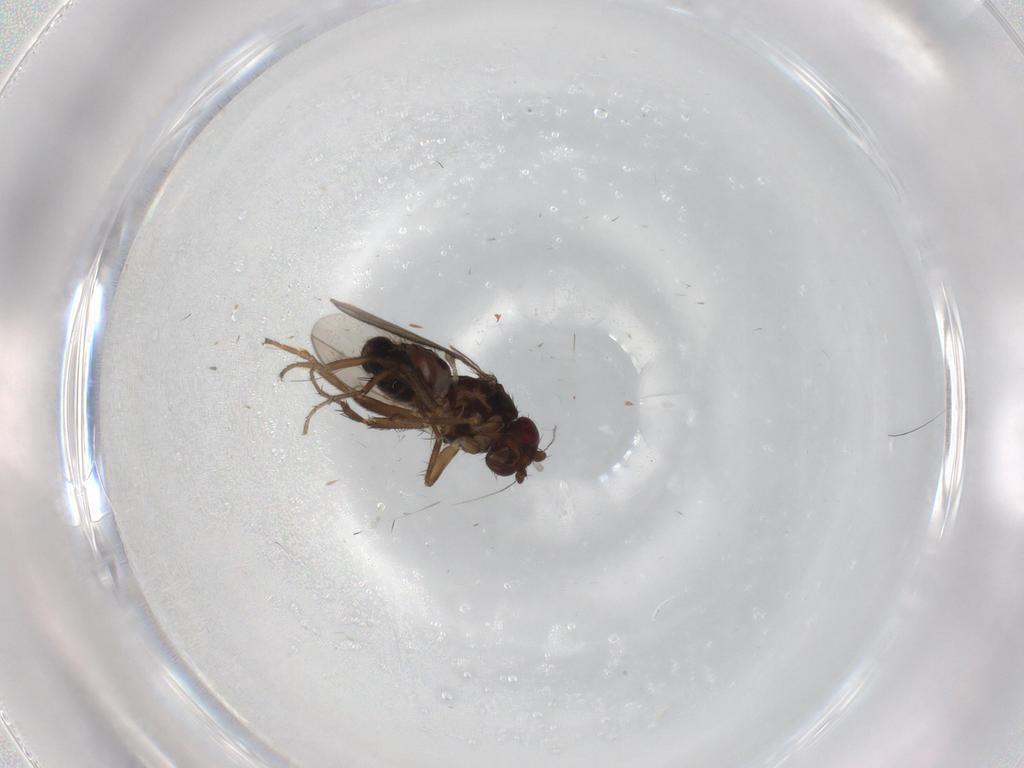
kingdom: Animalia
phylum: Arthropoda
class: Insecta
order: Diptera
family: Sphaeroceridae
